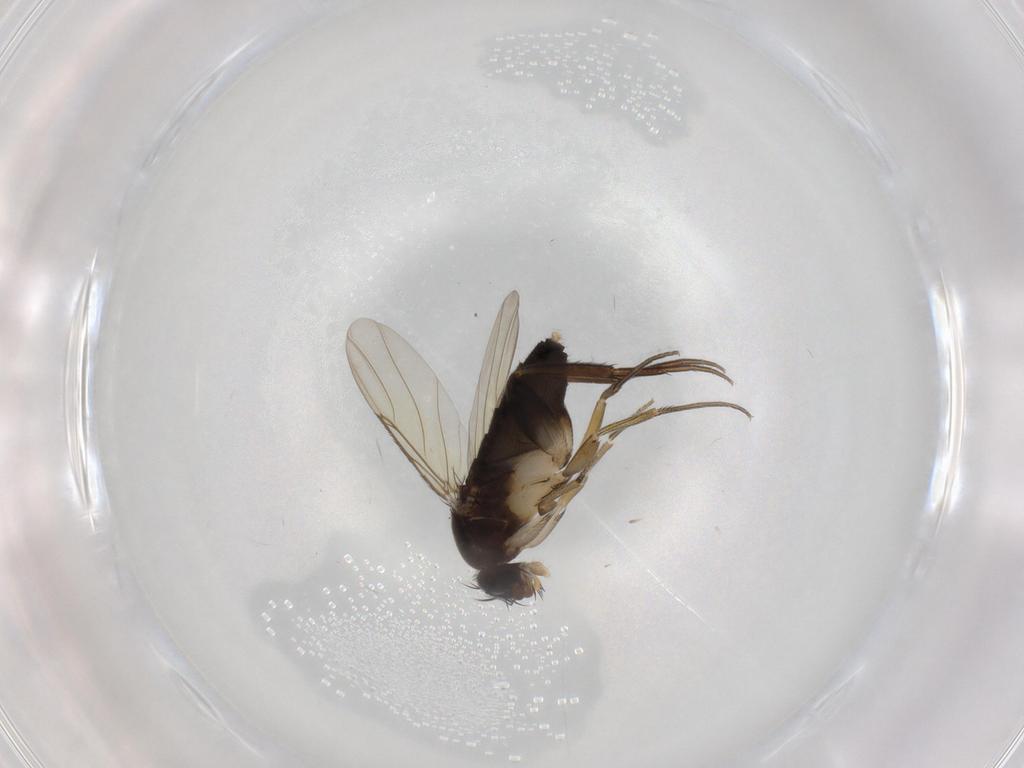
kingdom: Animalia
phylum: Arthropoda
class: Insecta
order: Diptera
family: Phoridae
